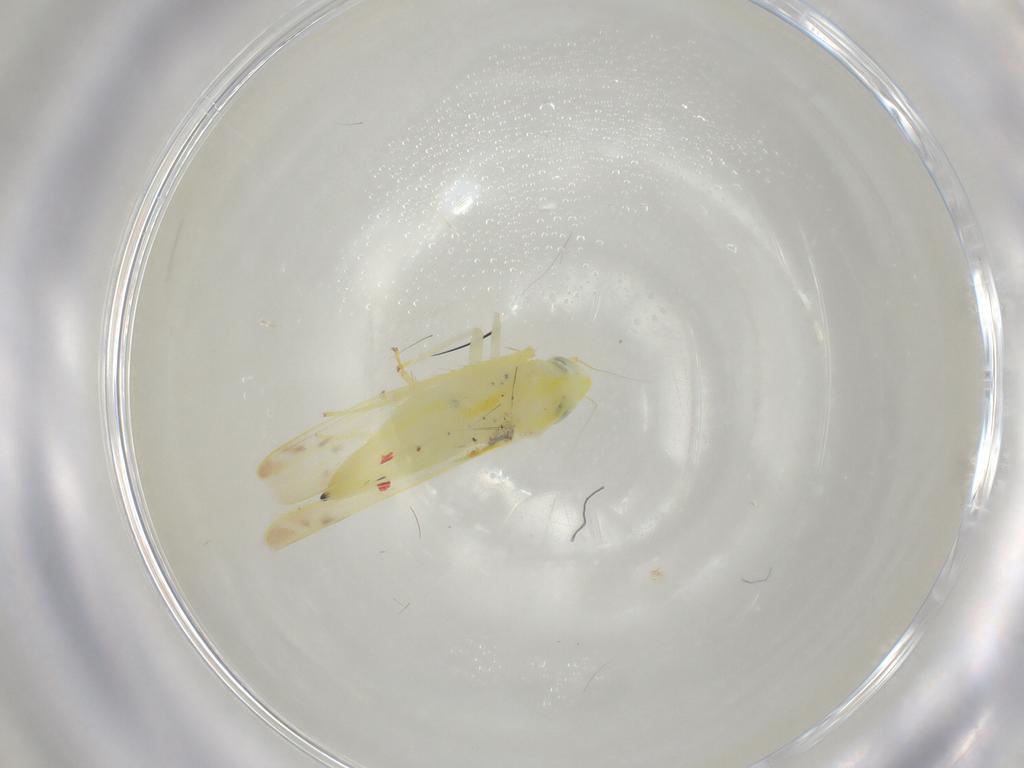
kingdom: Animalia
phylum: Arthropoda
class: Insecta
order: Hemiptera
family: Cicadellidae
